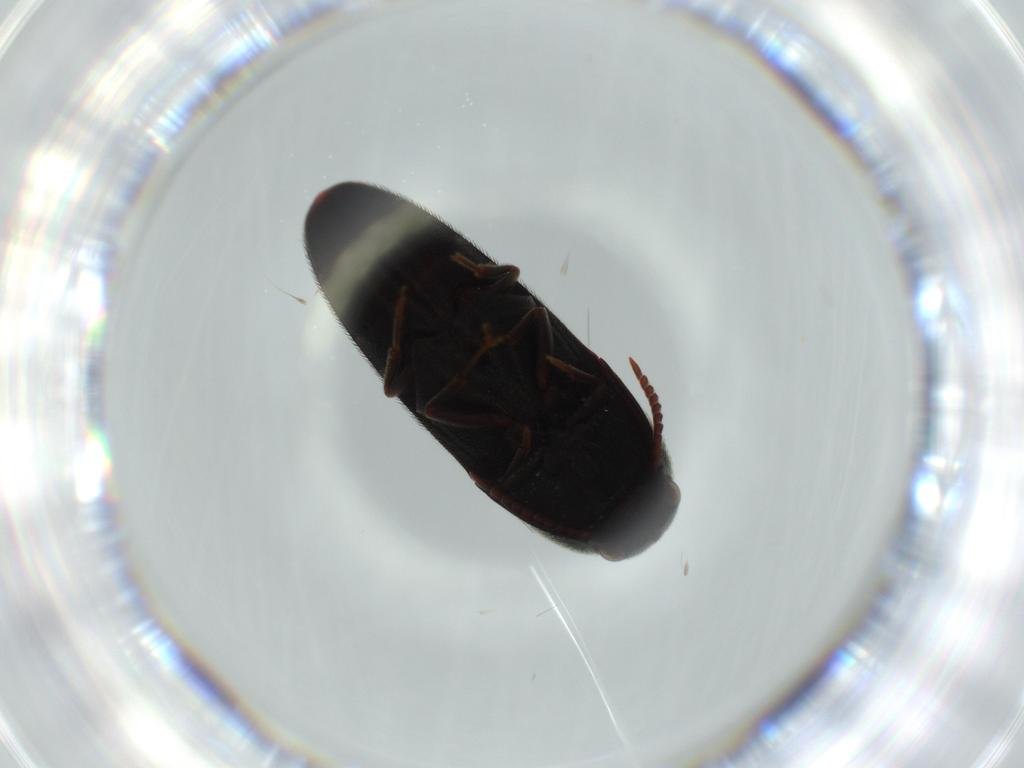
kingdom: Animalia
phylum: Arthropoda
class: Insecta
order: Coleoptera
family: Eucnemidae
